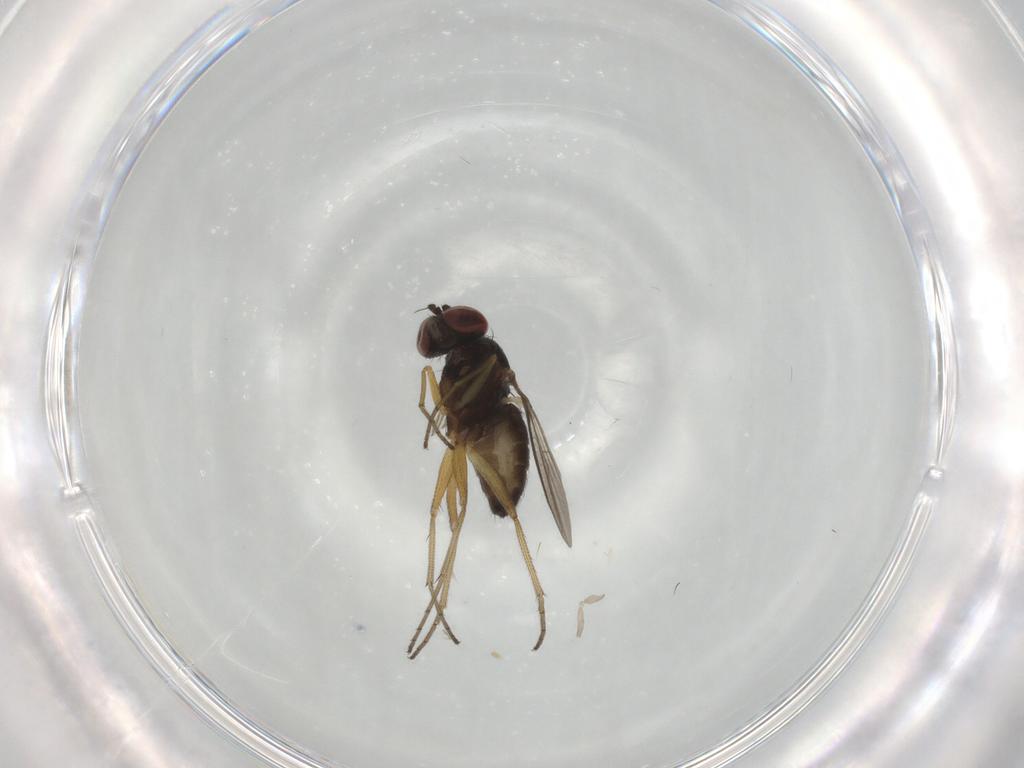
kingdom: Animalia
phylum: Arthropoda
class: Insecta
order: Diptera
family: Dolichopodidae
